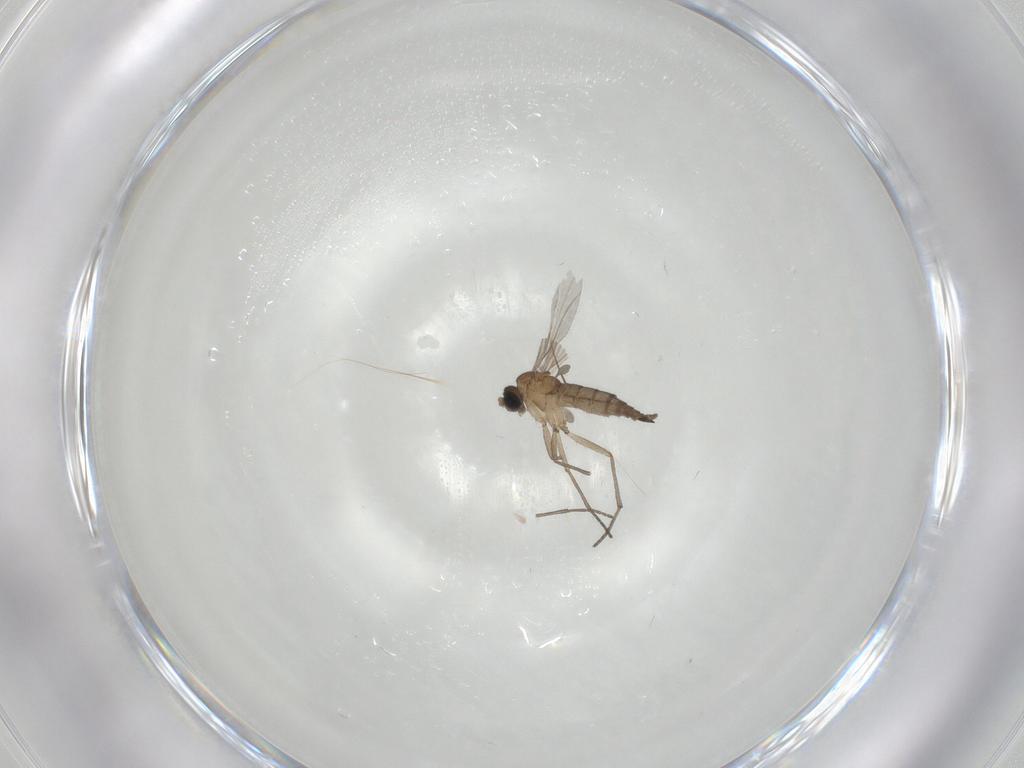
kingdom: Animalia
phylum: Arthropoda
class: Insecta
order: Diptera
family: Sciaridae
